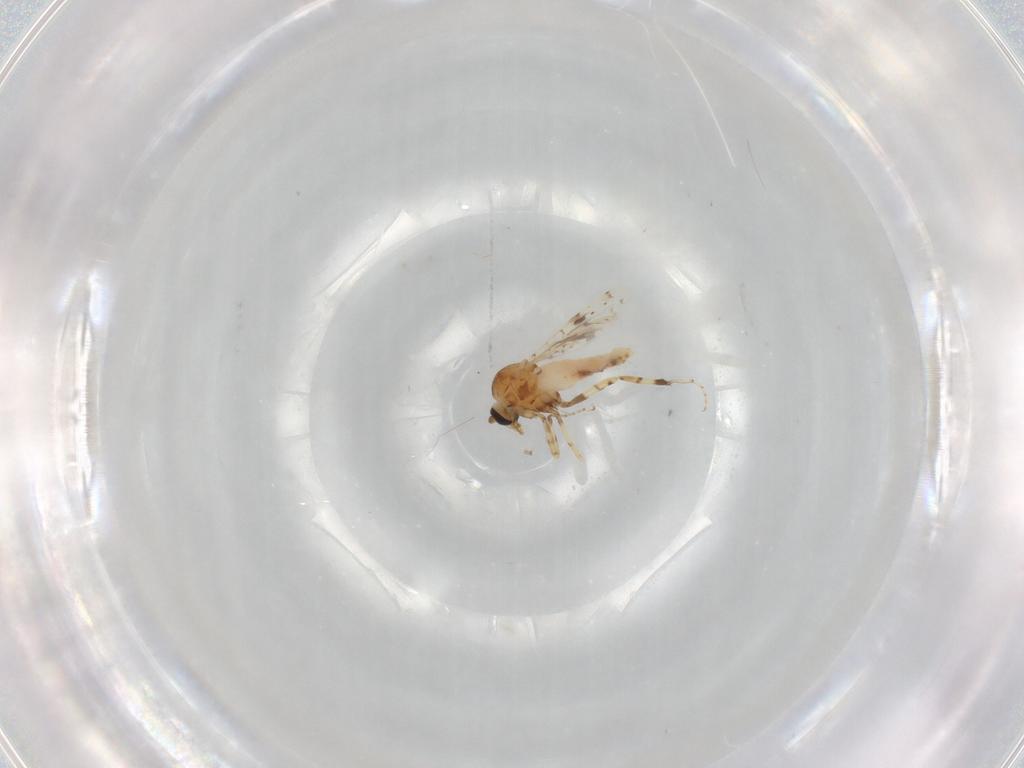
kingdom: Animalia
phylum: Arthropoda
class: Insecta
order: Diptera
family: Ceratopogonidae
